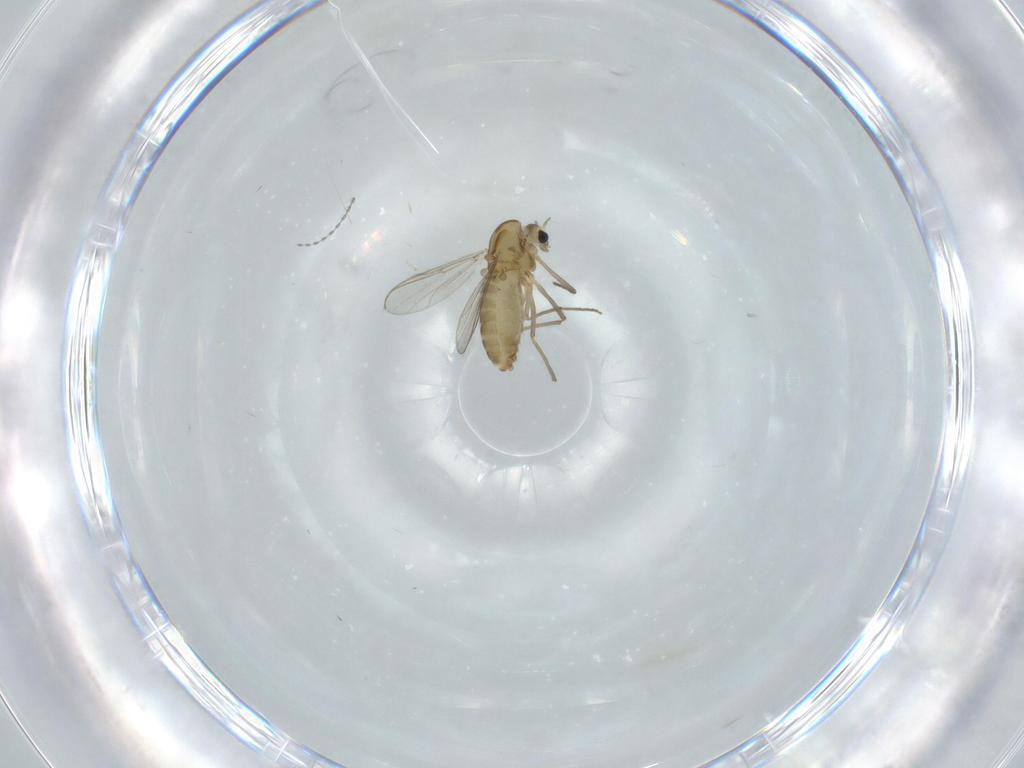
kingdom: Animalia
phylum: Arthropoda
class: Insecta
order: Diptera
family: Chironomidae
